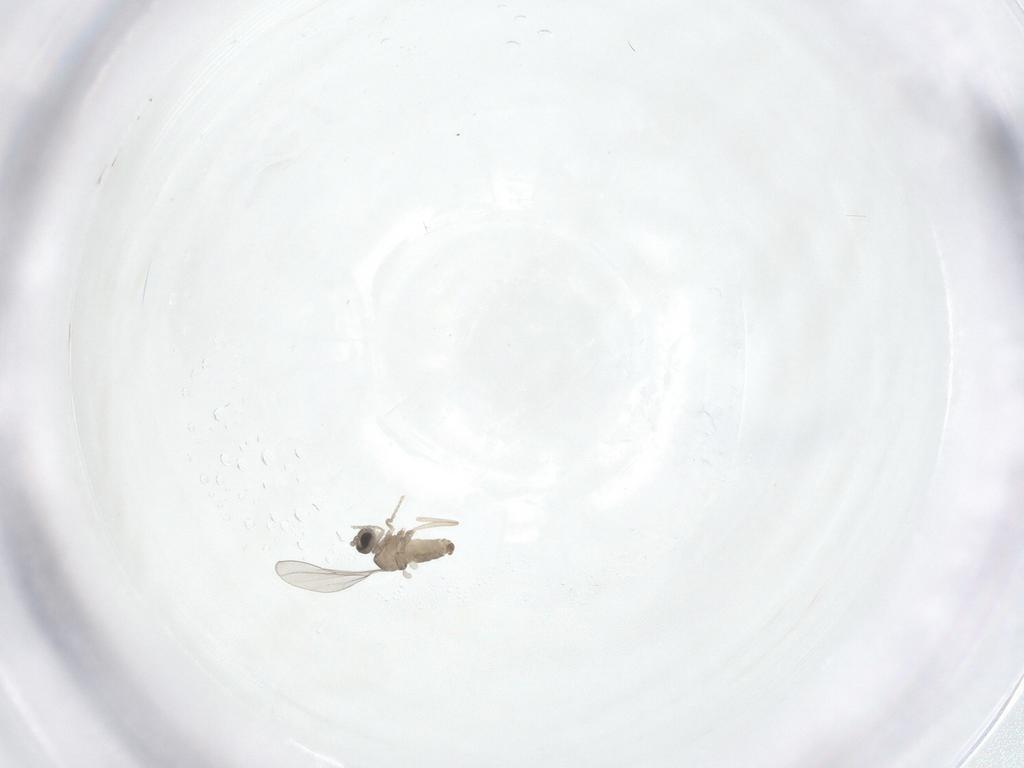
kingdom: Animalia
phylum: Arthropoda
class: Insecta
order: Diptera
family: Cecidomyiidae
